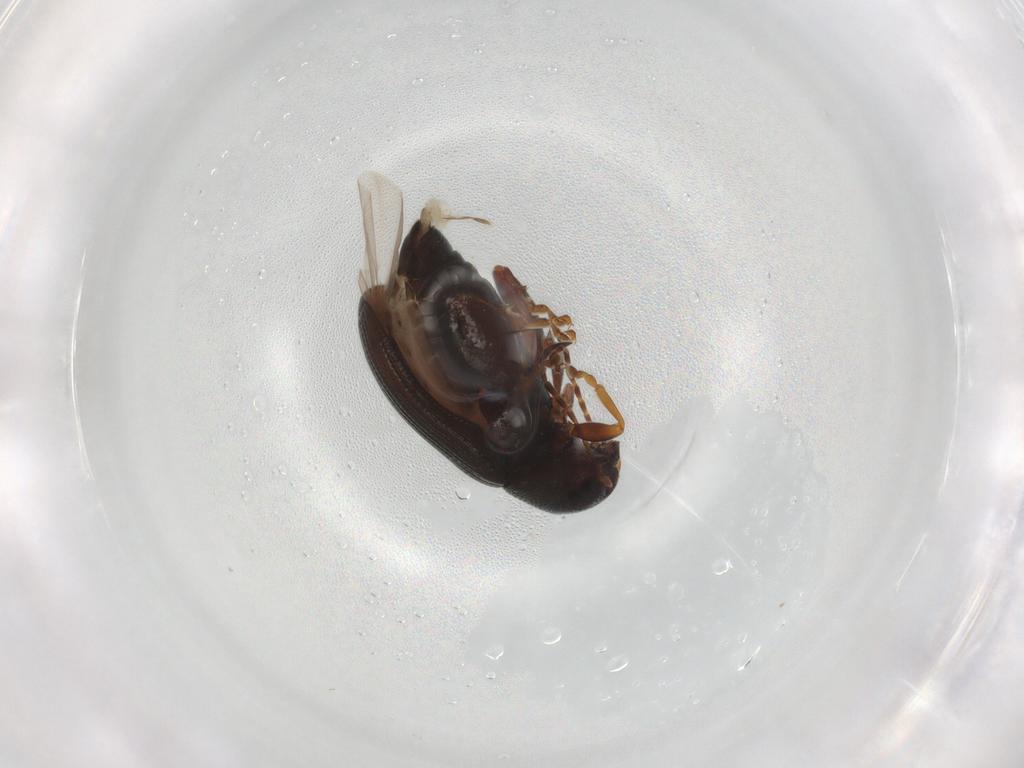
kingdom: Animalia
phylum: Arthropoda
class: Insecta
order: Coleoptera
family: Chrysomelidae
